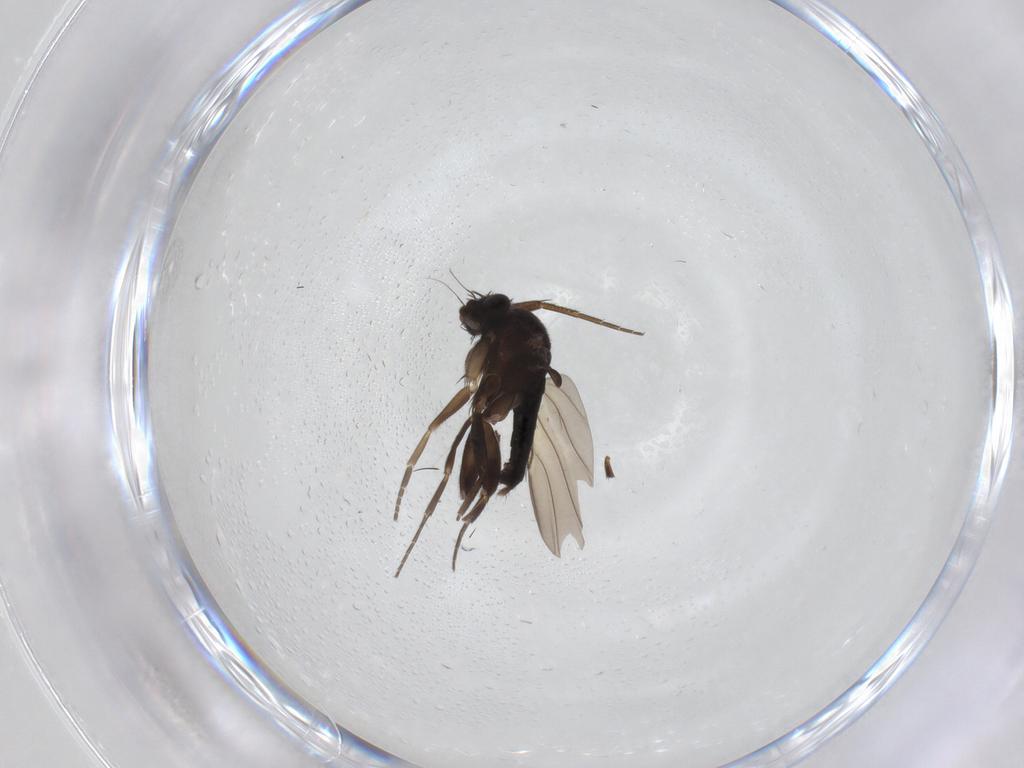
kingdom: Animalia
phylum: Arthropoda
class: Insecta
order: Diptera
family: Phoridae
